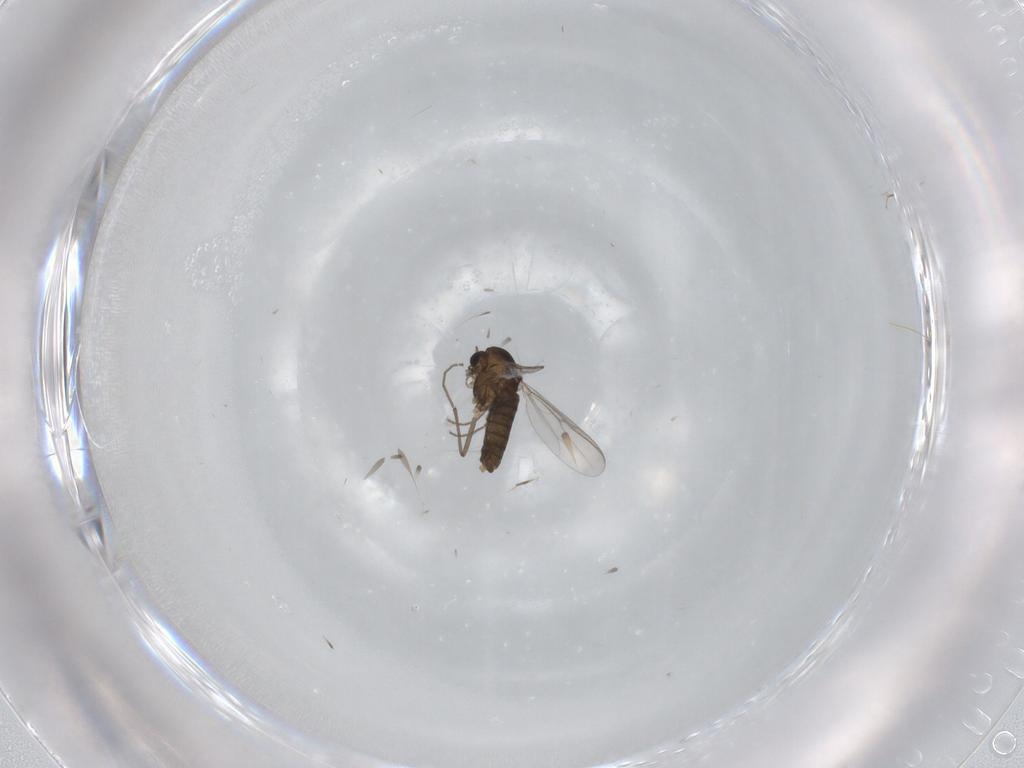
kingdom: Animalia
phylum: Arthropoda
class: Insecta
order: Diptera
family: Chironomidae
